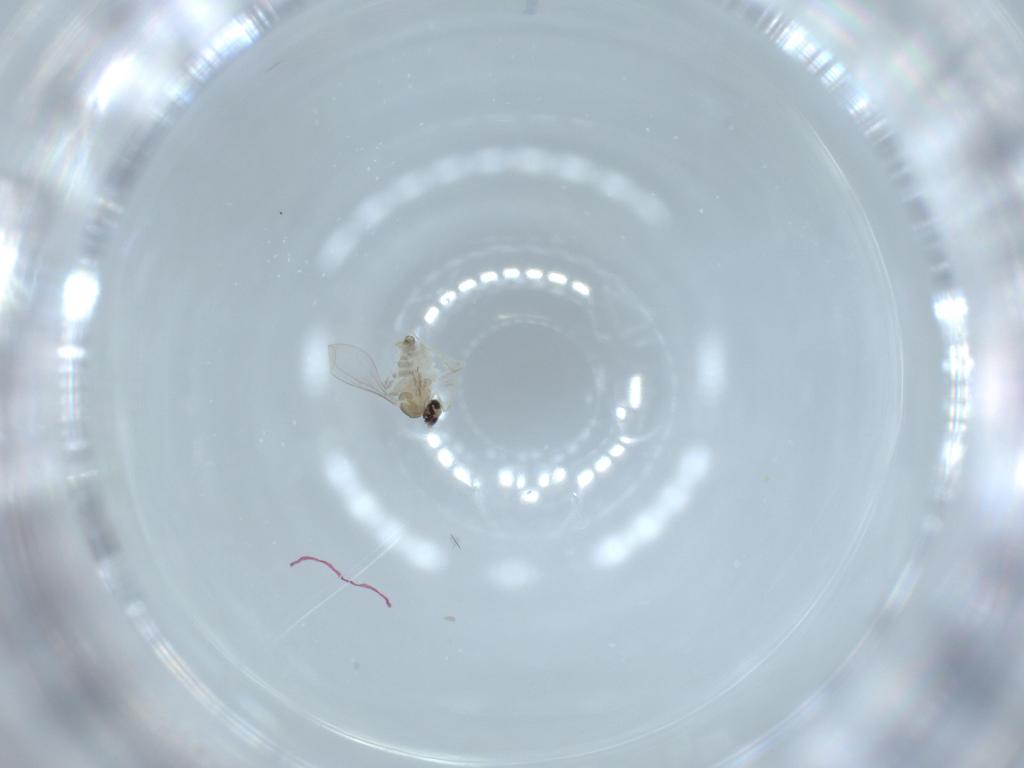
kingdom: Animalia
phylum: Arthropoda
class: Insecta
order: Diptera
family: Cecidomyiidae
